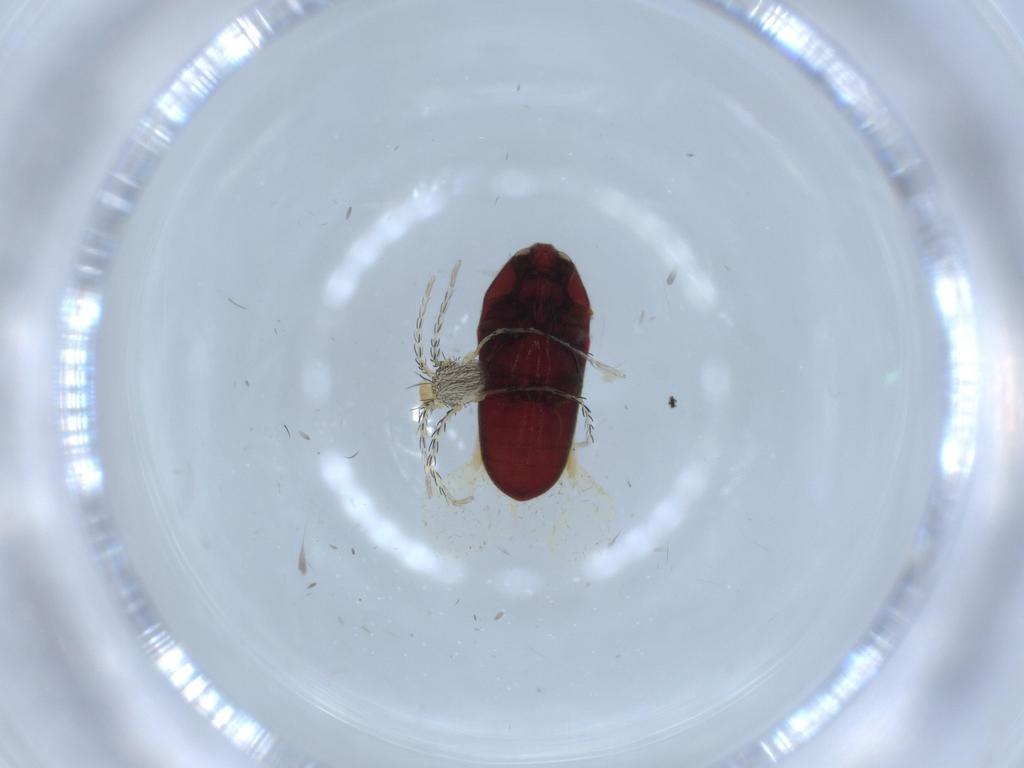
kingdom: Animalia
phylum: Arthropoda
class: Insecta
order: Coleoptera
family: Throscidae
